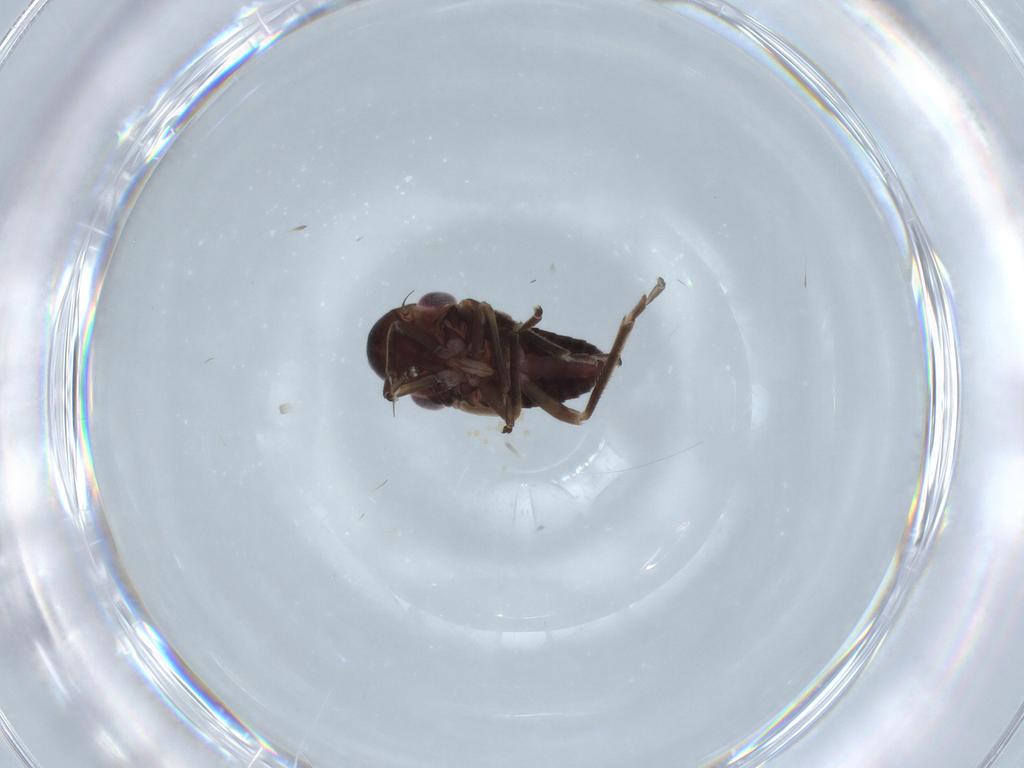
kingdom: Animalia
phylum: Arthropoda
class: Insecta
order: Hemiptera
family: Cicadellidae
